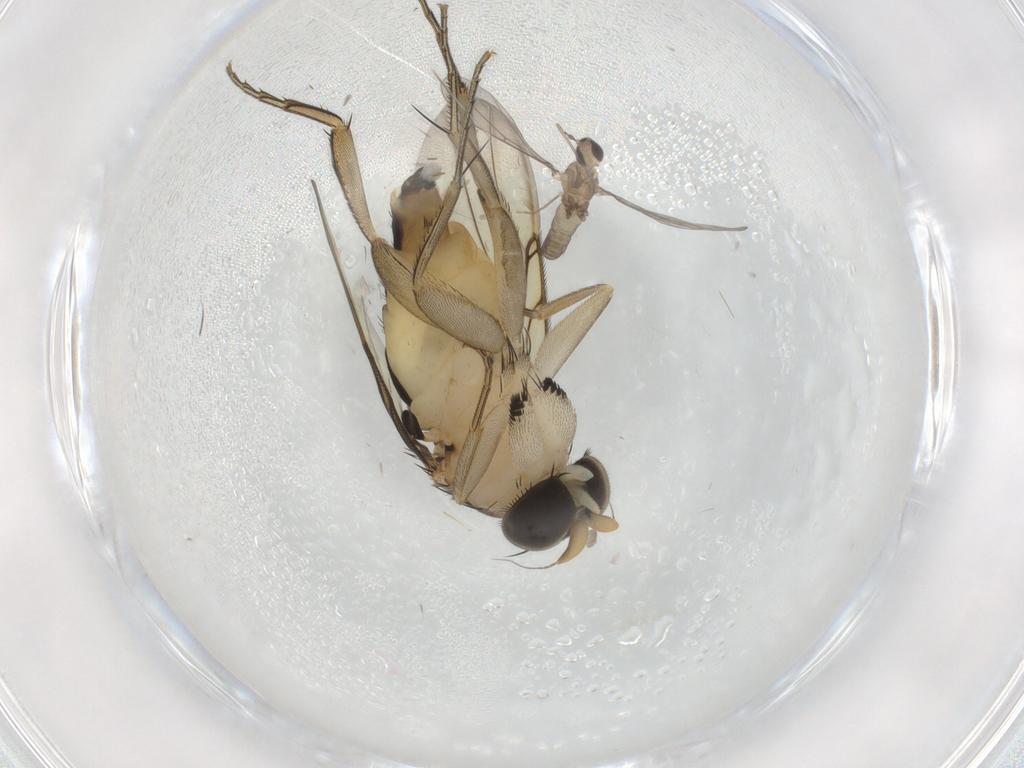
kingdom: Animalia
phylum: Arthropoda
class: Insecta
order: Diptera
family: Phoridae
